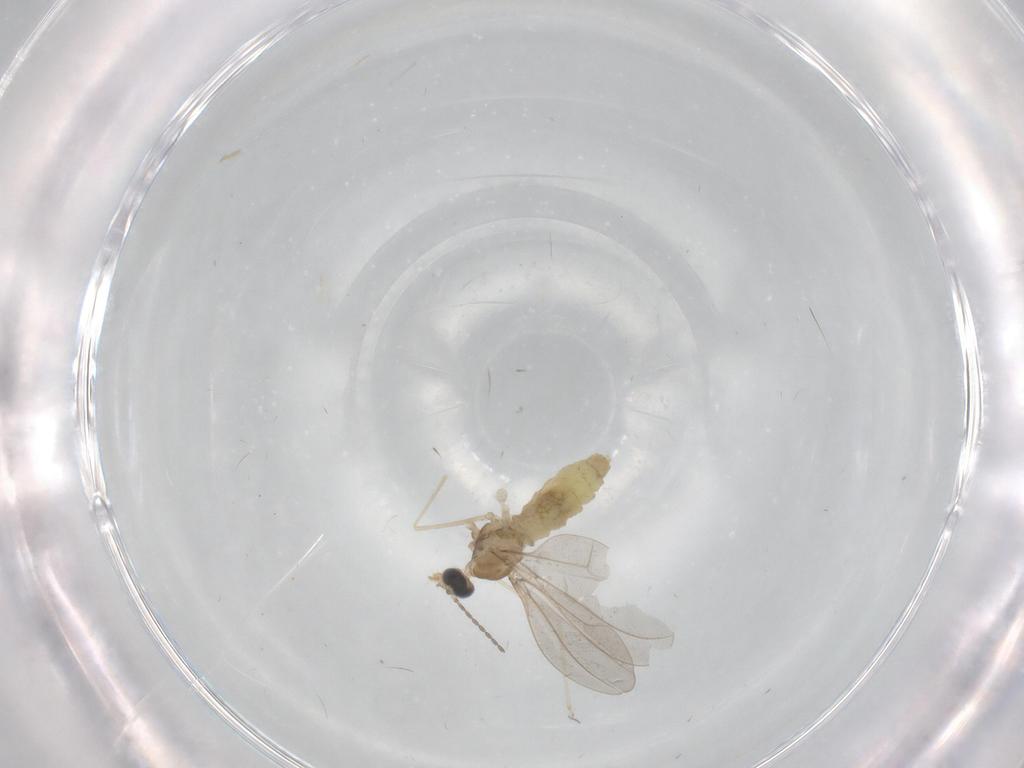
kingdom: Animalia
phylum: Arthropoda
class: Insecta
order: Diptera
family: Cecidomyiidae
